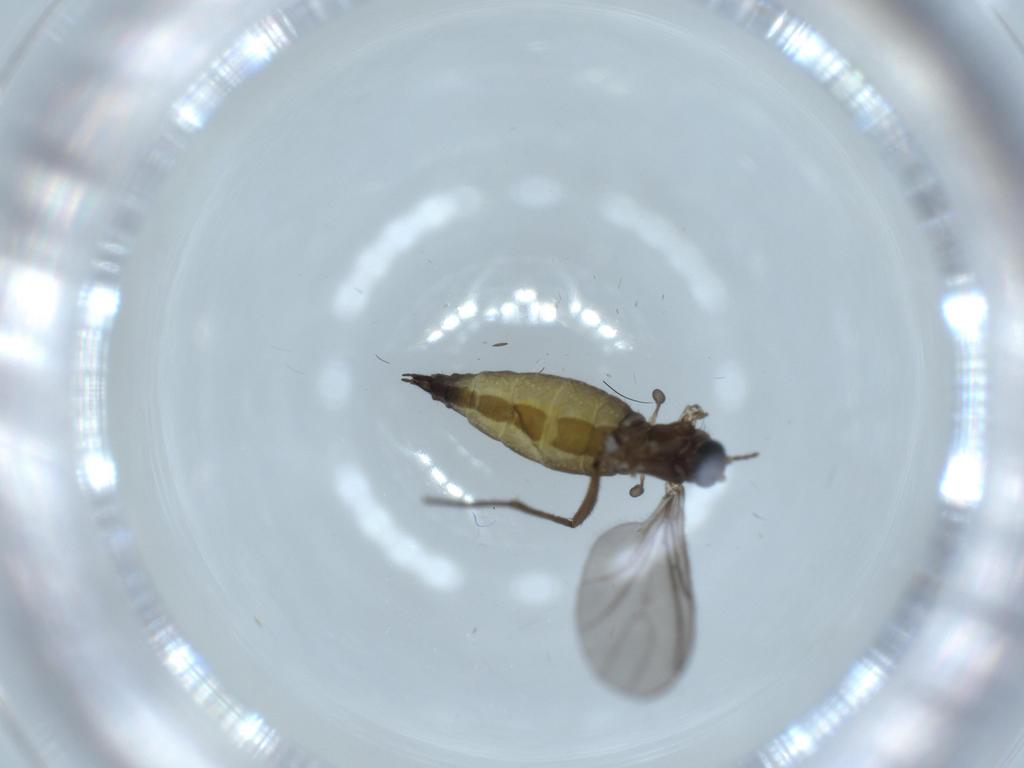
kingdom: Animalia
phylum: Arthropoda
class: Insecta
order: Diptera
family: Sciaridae
